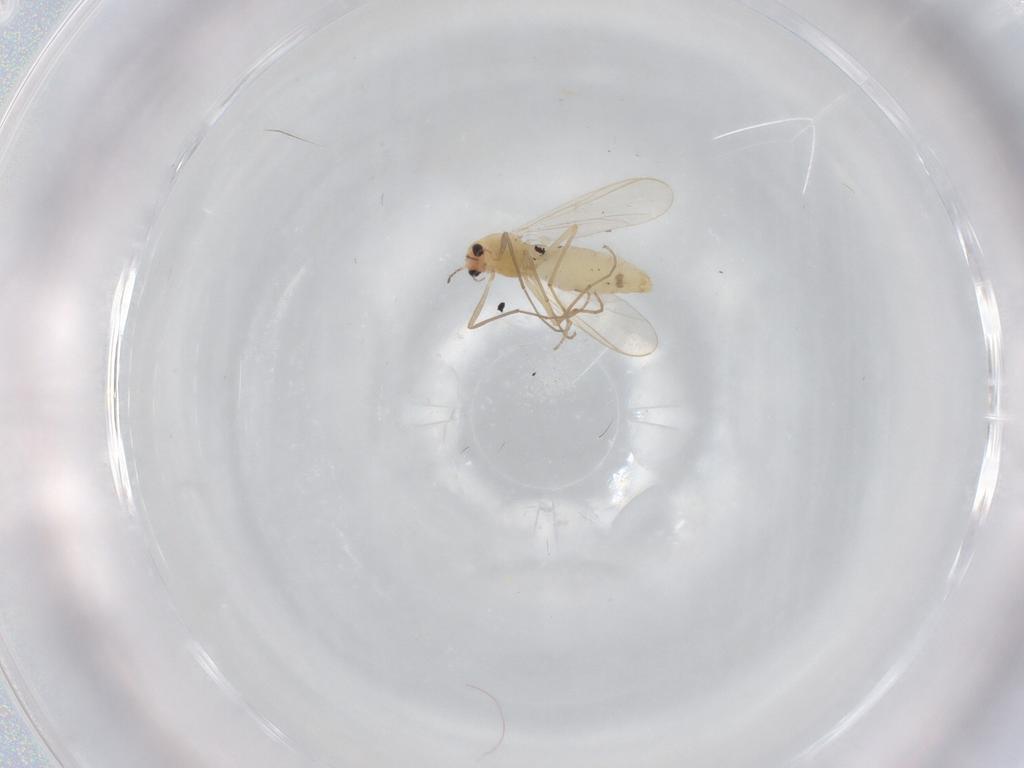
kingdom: Animalia
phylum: Arthropoda
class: Insecta
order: Diptera
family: Chironomidae
